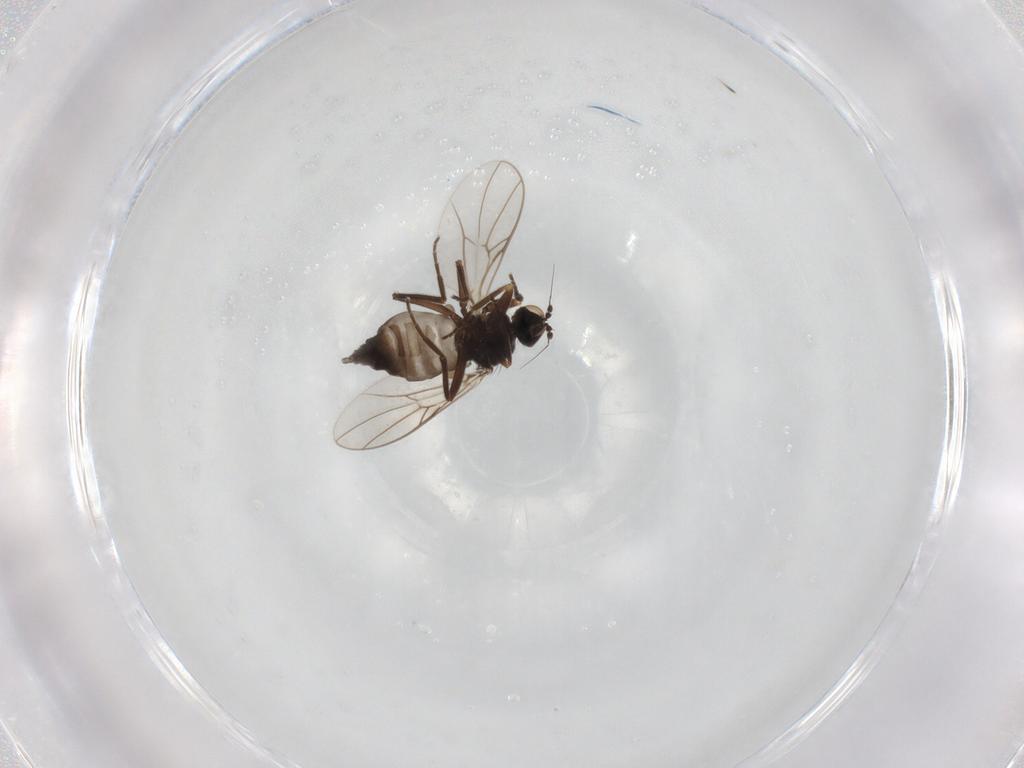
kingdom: Animalia
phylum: Arthropoda
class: Insecta
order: Diptera
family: Hybotidae
